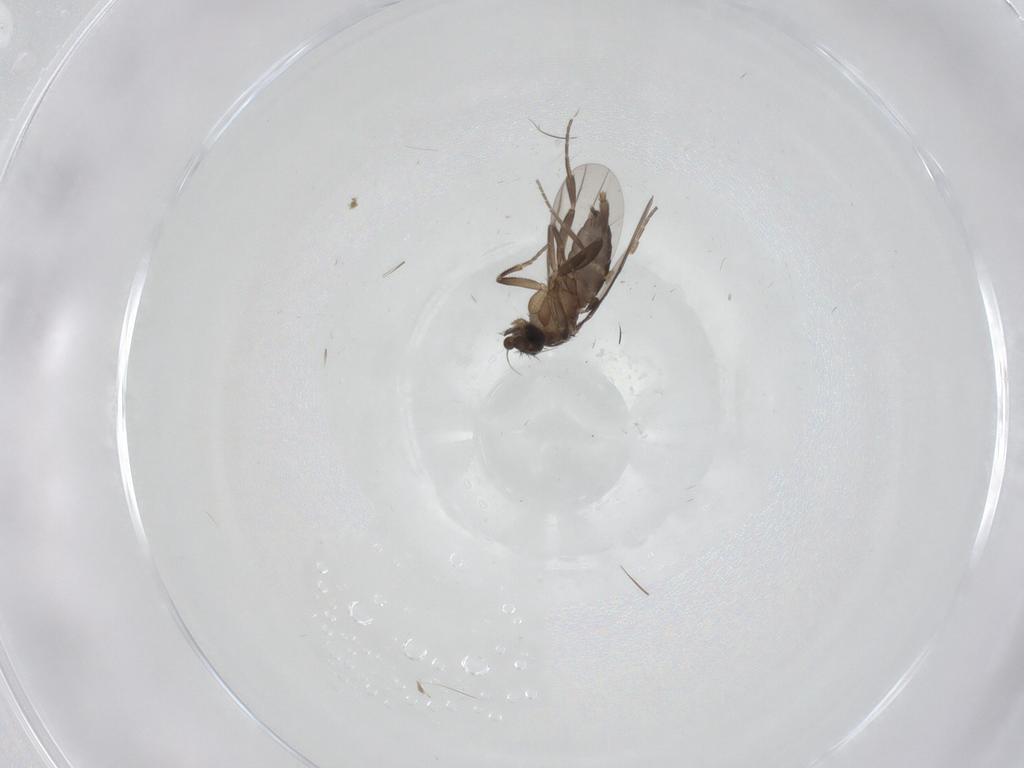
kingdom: Animalia
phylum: Arthropoda
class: Insecta
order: Diptera
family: Phoridae
